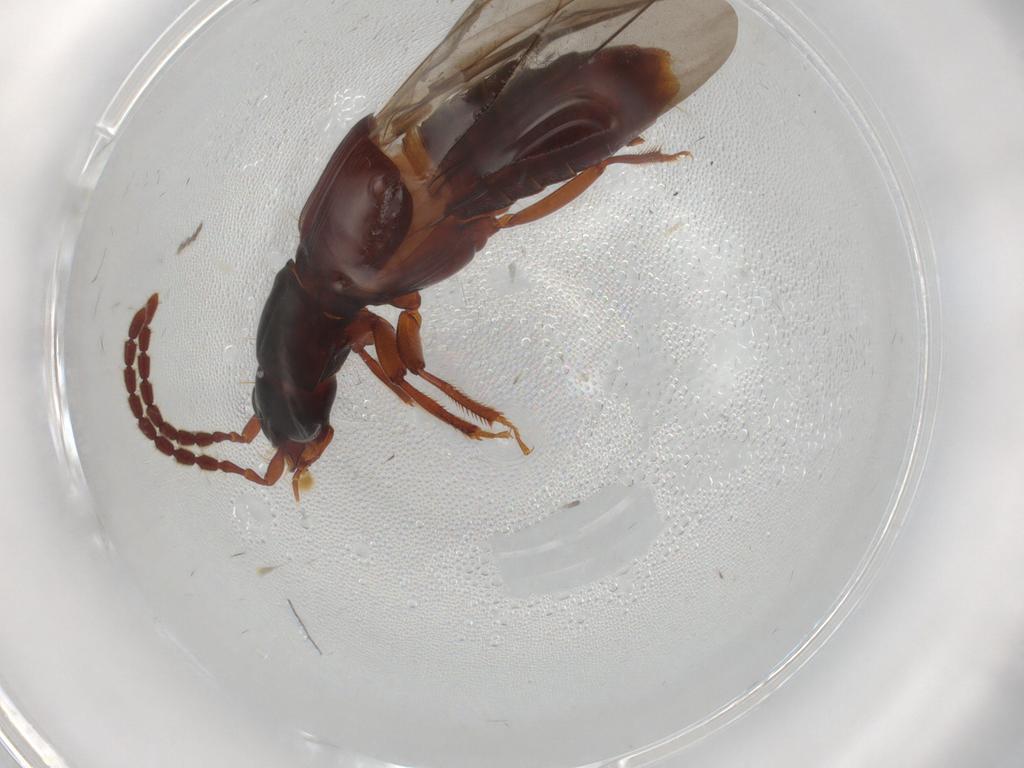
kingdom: Animalia
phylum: Arthropoda
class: Insecta
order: Coleoptera
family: Staphylinidae
